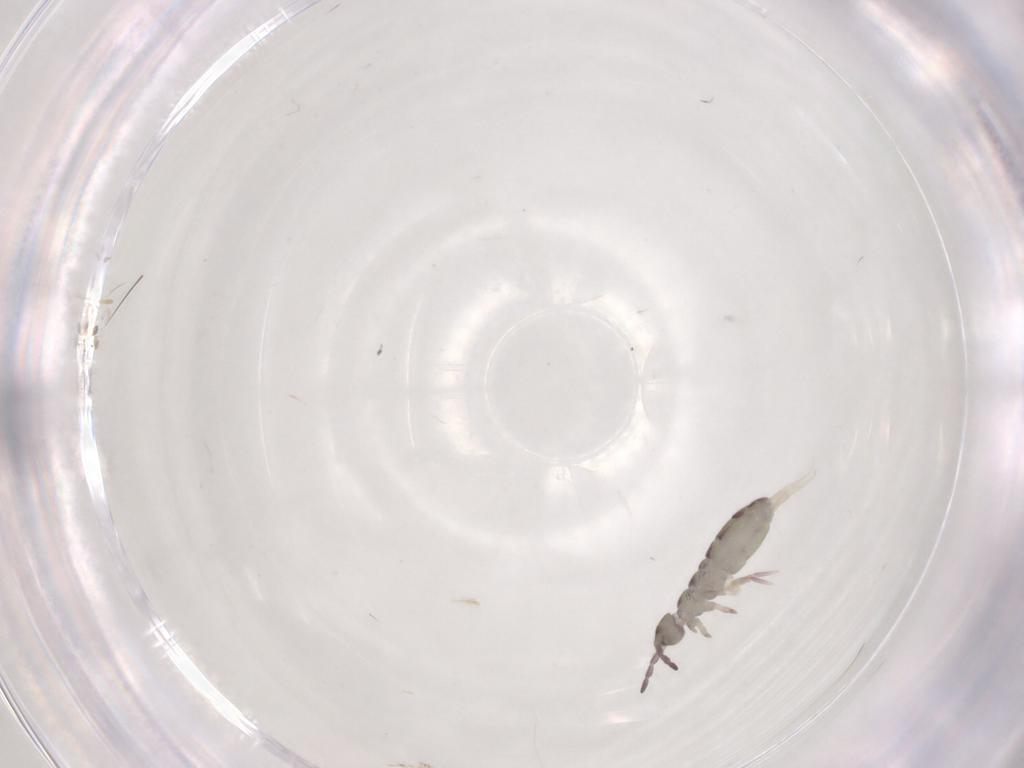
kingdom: Animalia
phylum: Arthropoda
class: Collembola
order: Entomobryomorpha
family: Isotomidae
